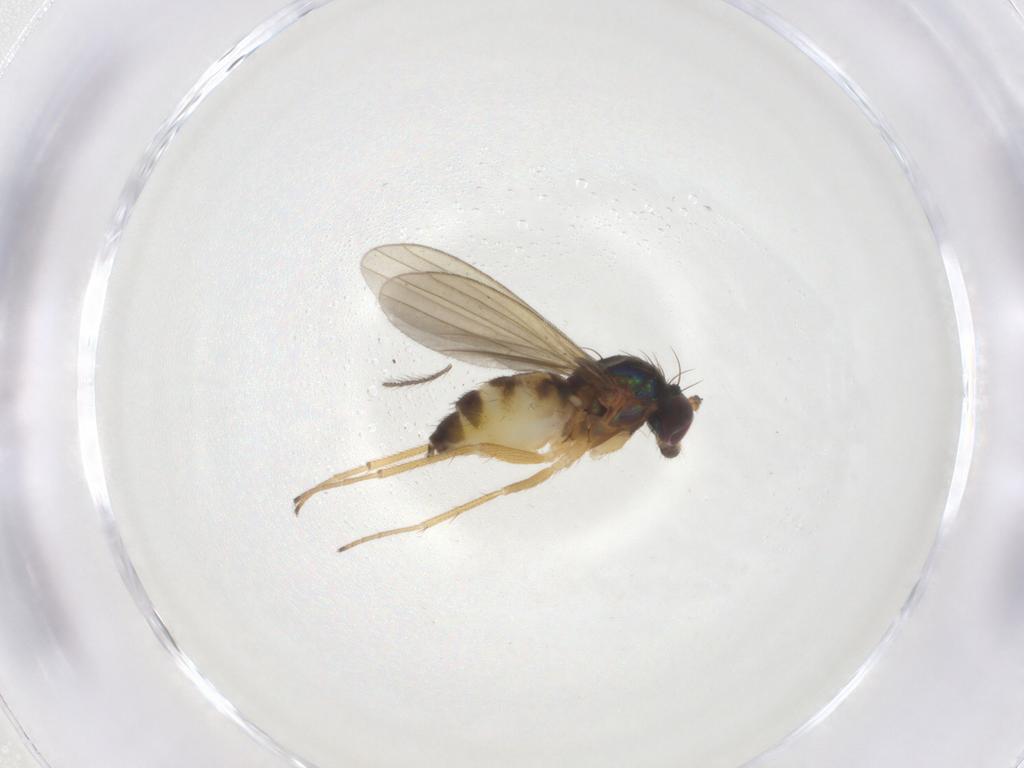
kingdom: Animalia
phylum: Arthropoda
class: Insecta
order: Diptera
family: Dolichopodidae
